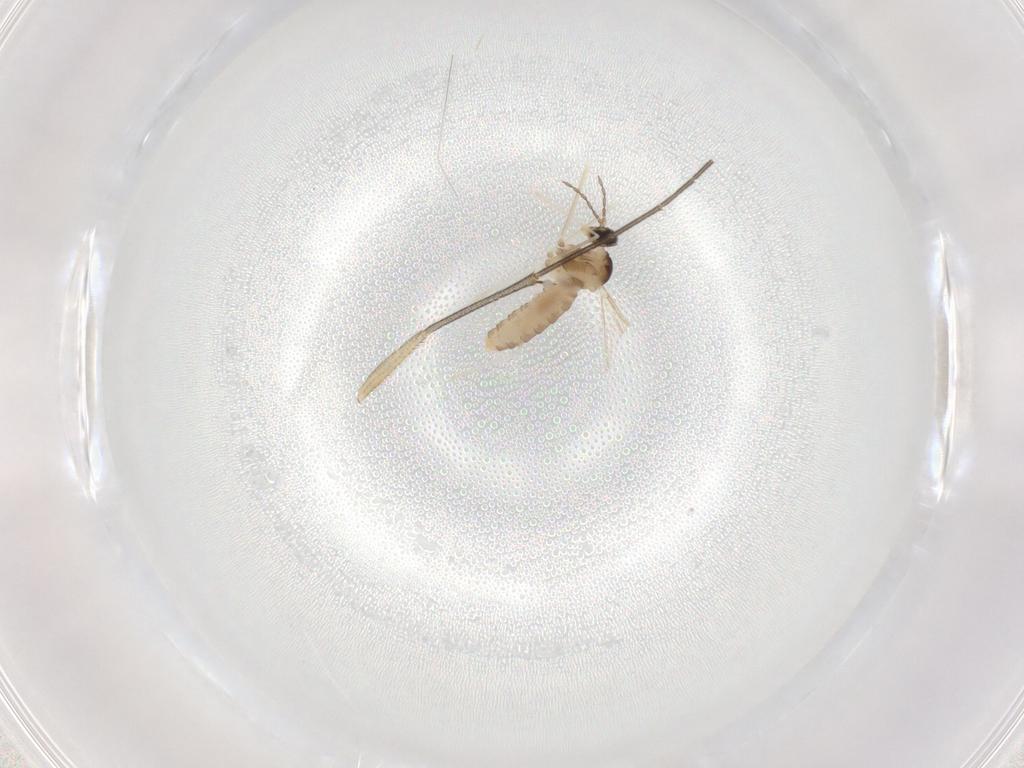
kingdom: Animalia
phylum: Arthropoda
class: Insecta
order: Diptera
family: Cecidomyiidae
